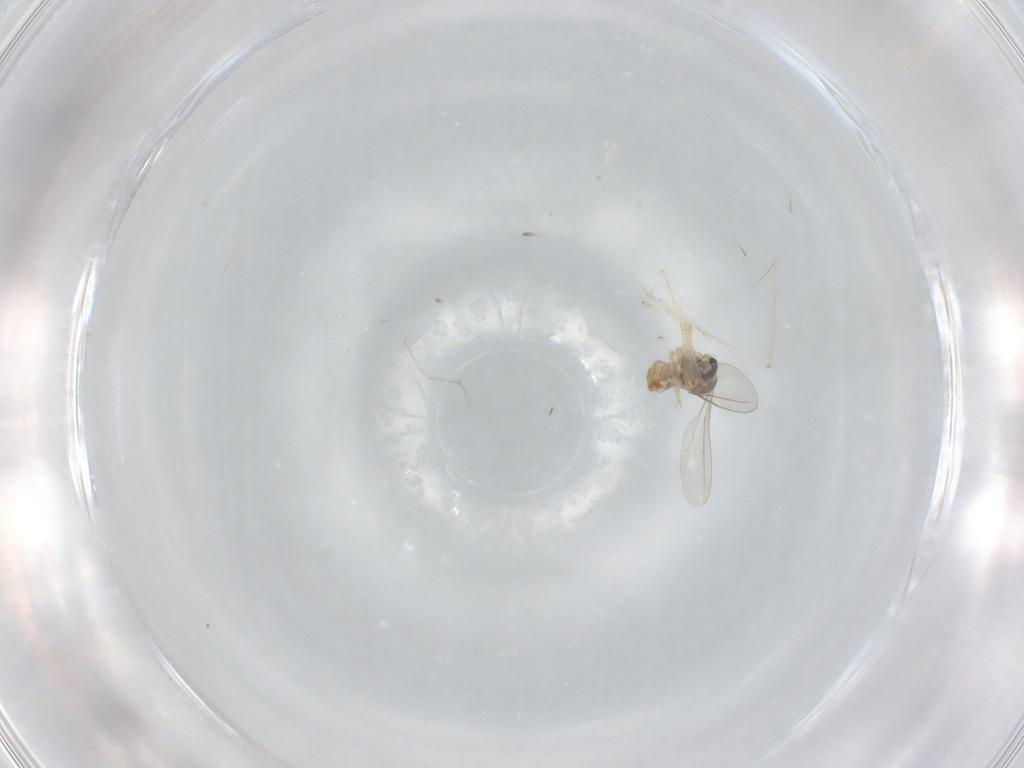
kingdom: Animalia
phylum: Arthropoda
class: Insecta
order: Diptera
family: Cecidomyiidae
